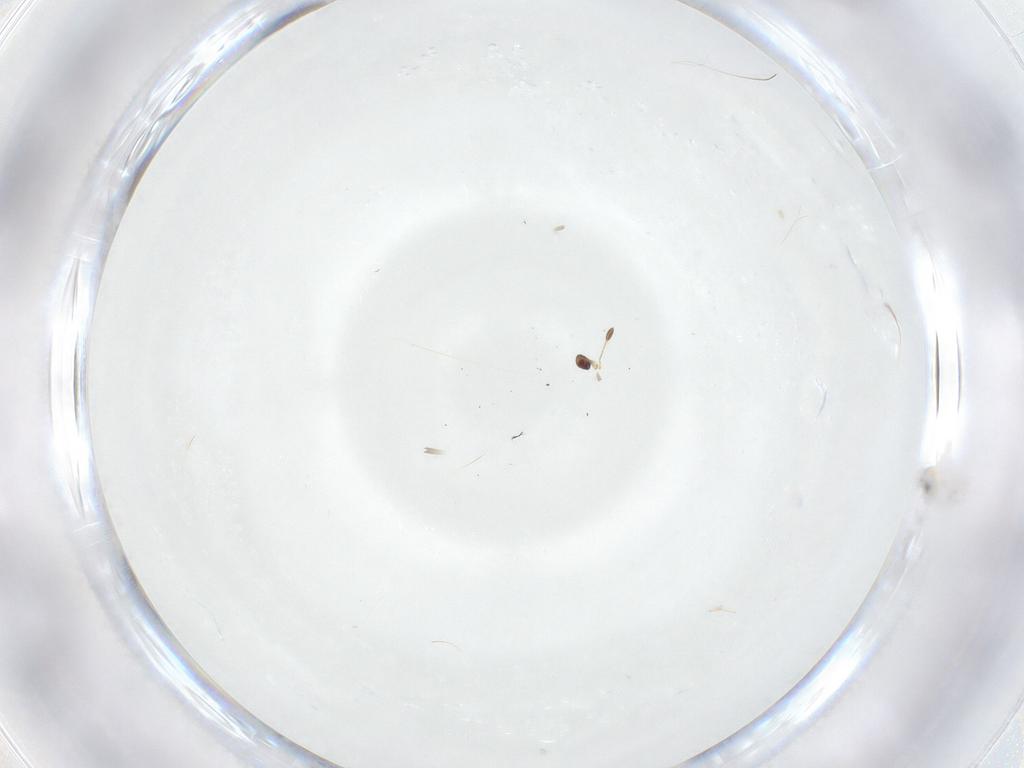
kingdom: Animalia
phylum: Arthropoda
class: Insecta
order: Hymenoptera
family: Mymaridae
